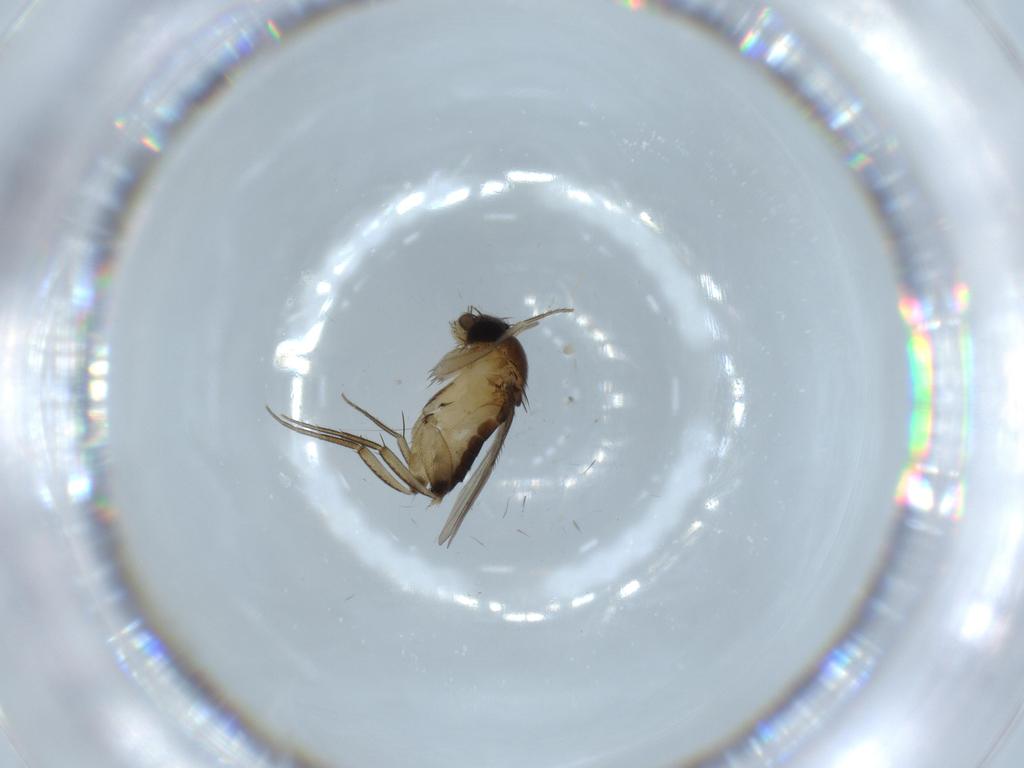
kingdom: Animalia
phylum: Arthropoda
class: Insecta
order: Diptera
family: Phoridae
